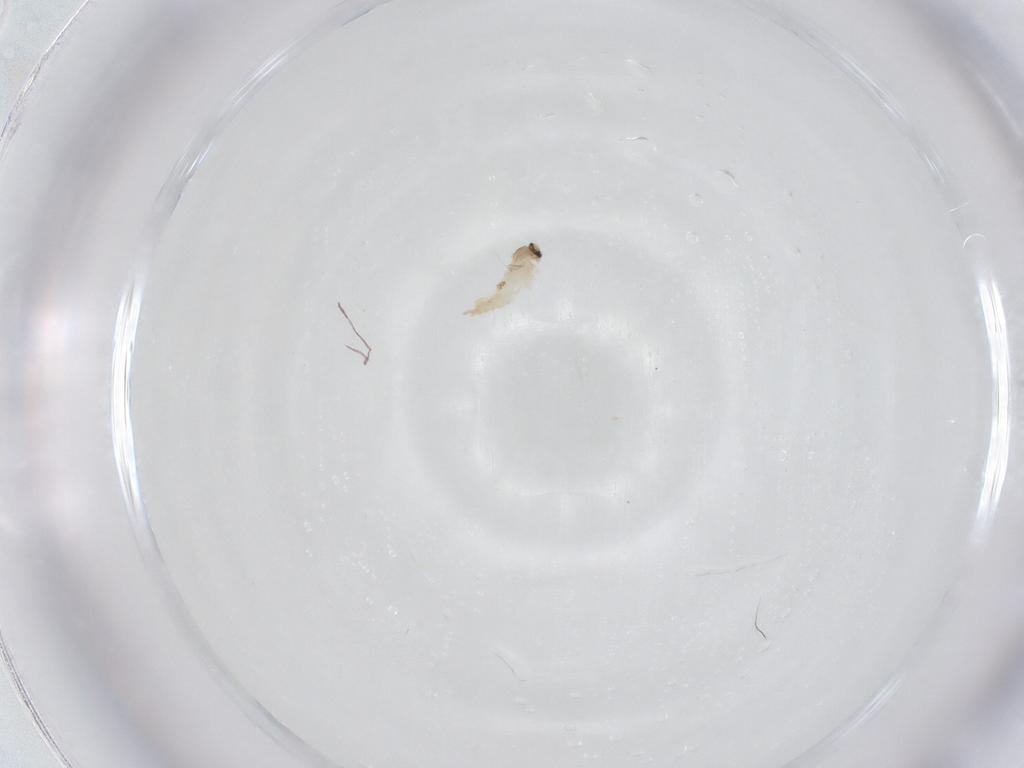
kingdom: Animalia
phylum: Arthropoda
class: Insecta
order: Diptera
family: Cecidomyiidae
